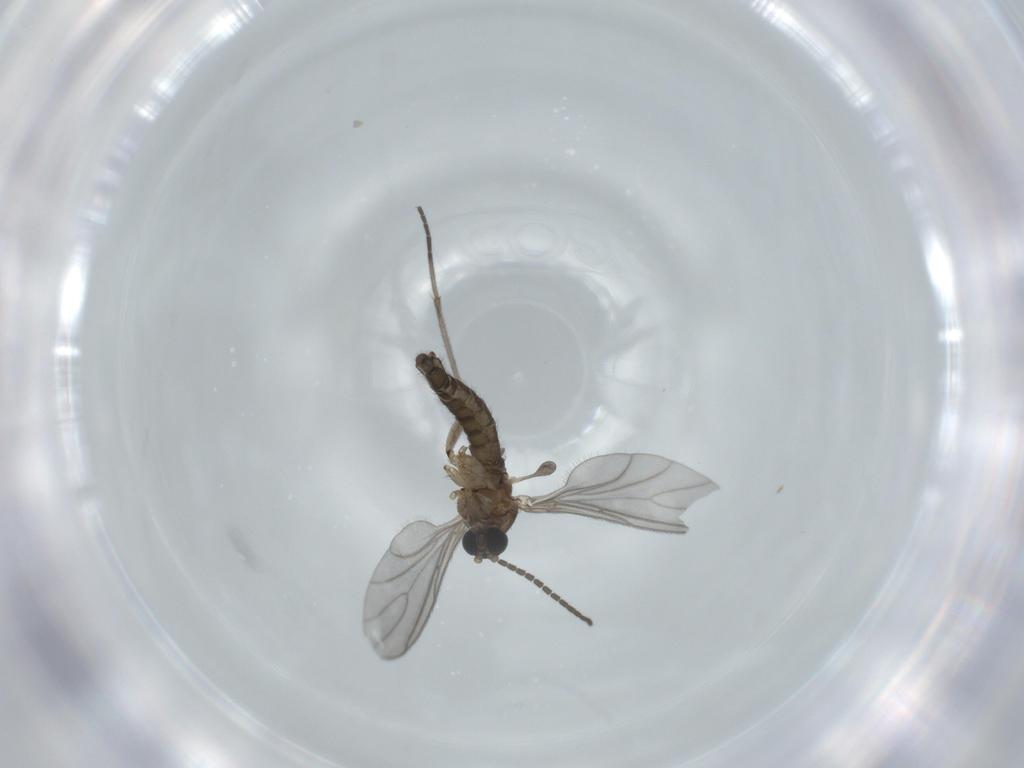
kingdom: Animalia
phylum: Arthropoda
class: Insecta
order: Diptera
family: Sciaridae
